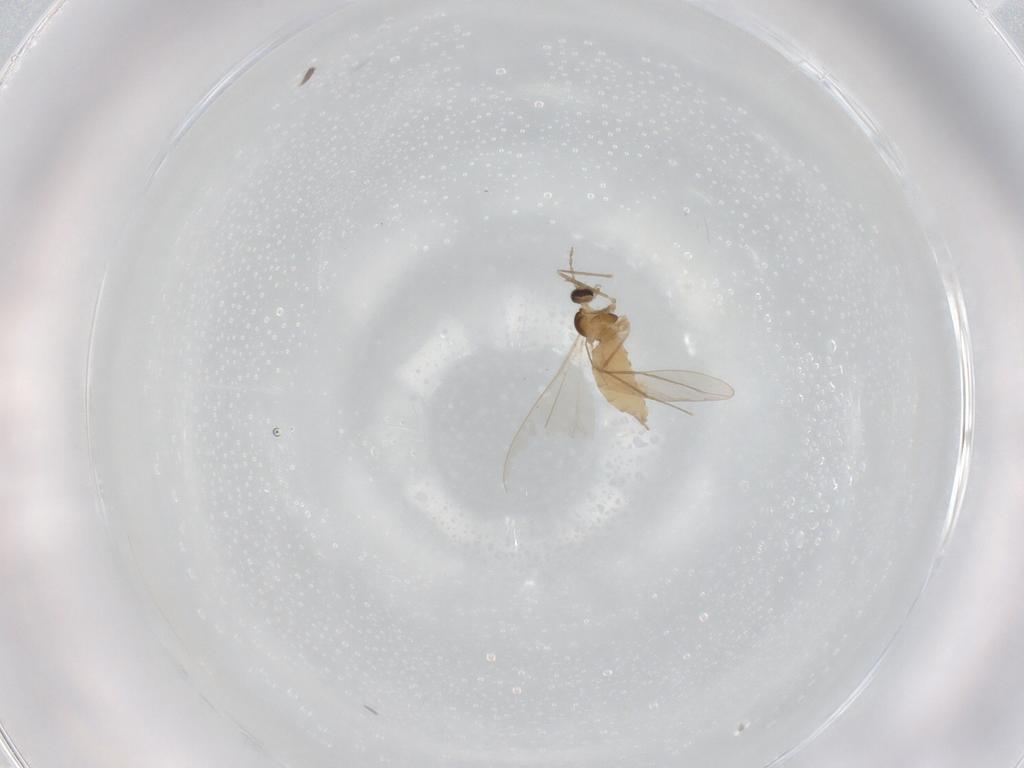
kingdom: Animalia
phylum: Arthropoda
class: Insecta
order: Diptera
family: Cecidomyiidae
